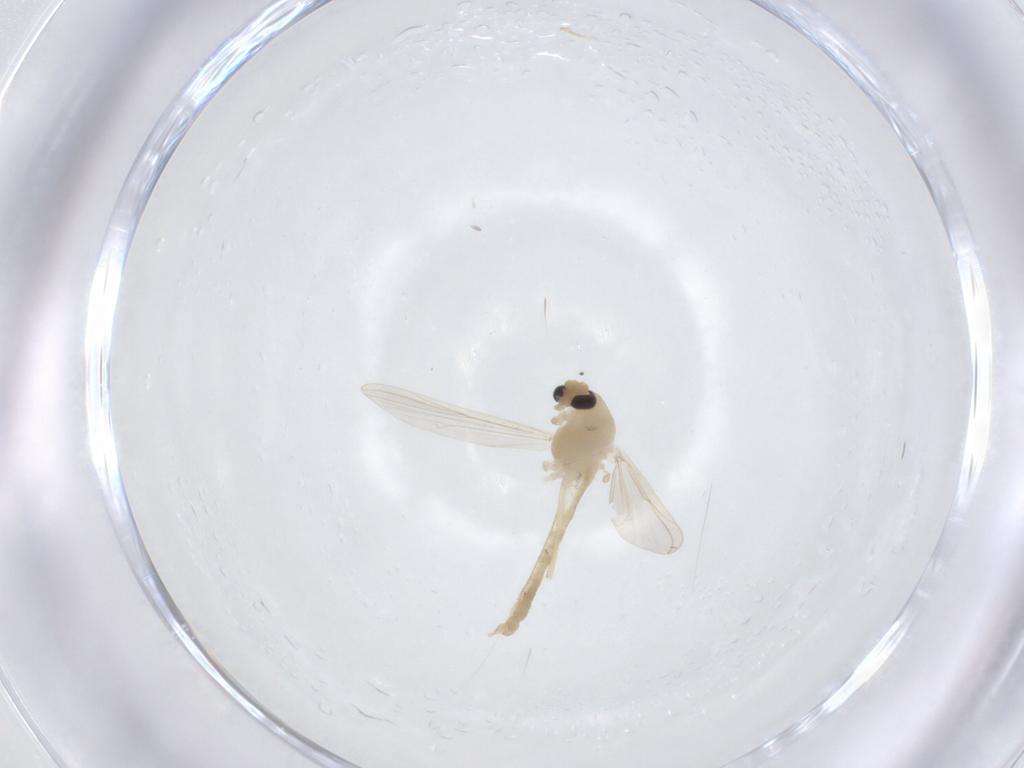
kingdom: Animalia
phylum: Arthropoda
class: Insecta
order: Diptera
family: Chironomidae
